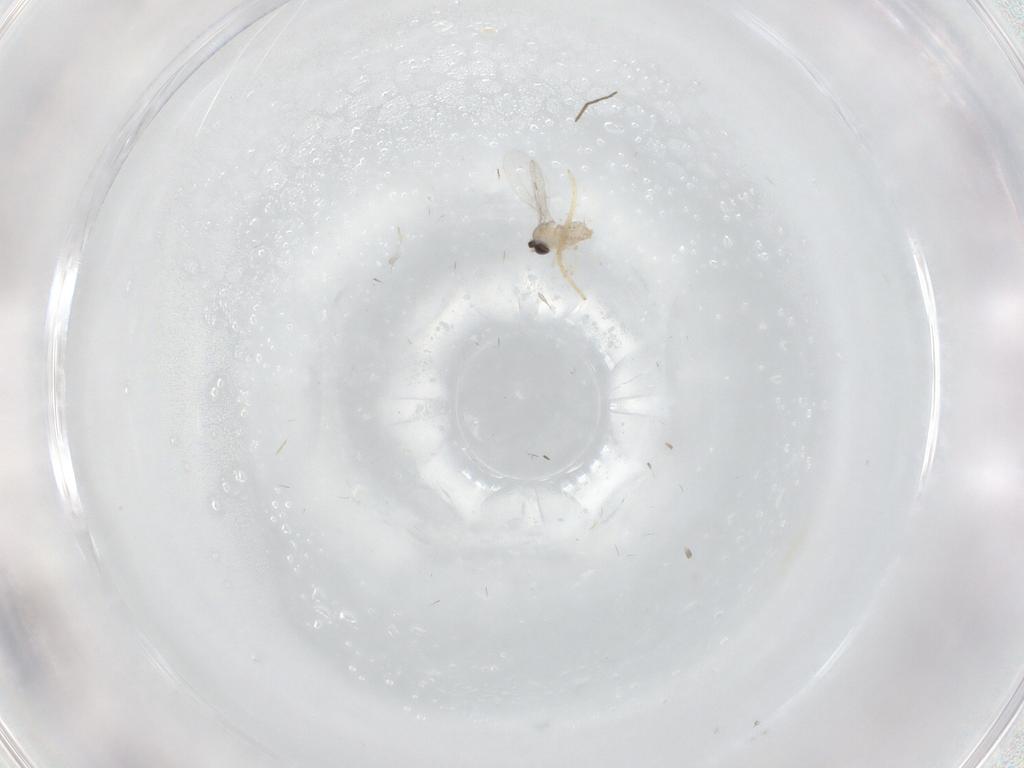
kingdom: Animalia
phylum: Arthropoda
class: Insecta
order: Diptera
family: Cecidomyiidae
